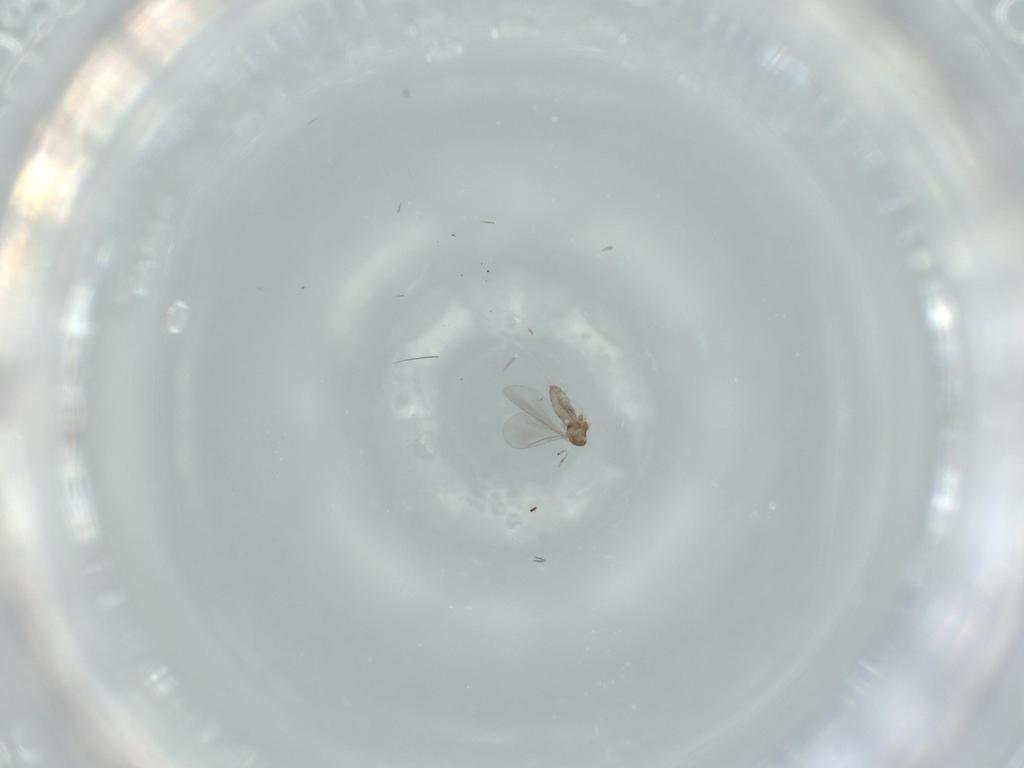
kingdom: Animalia
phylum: Arthropoda
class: Insecta
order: Diptera
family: Cecidomyiidae
